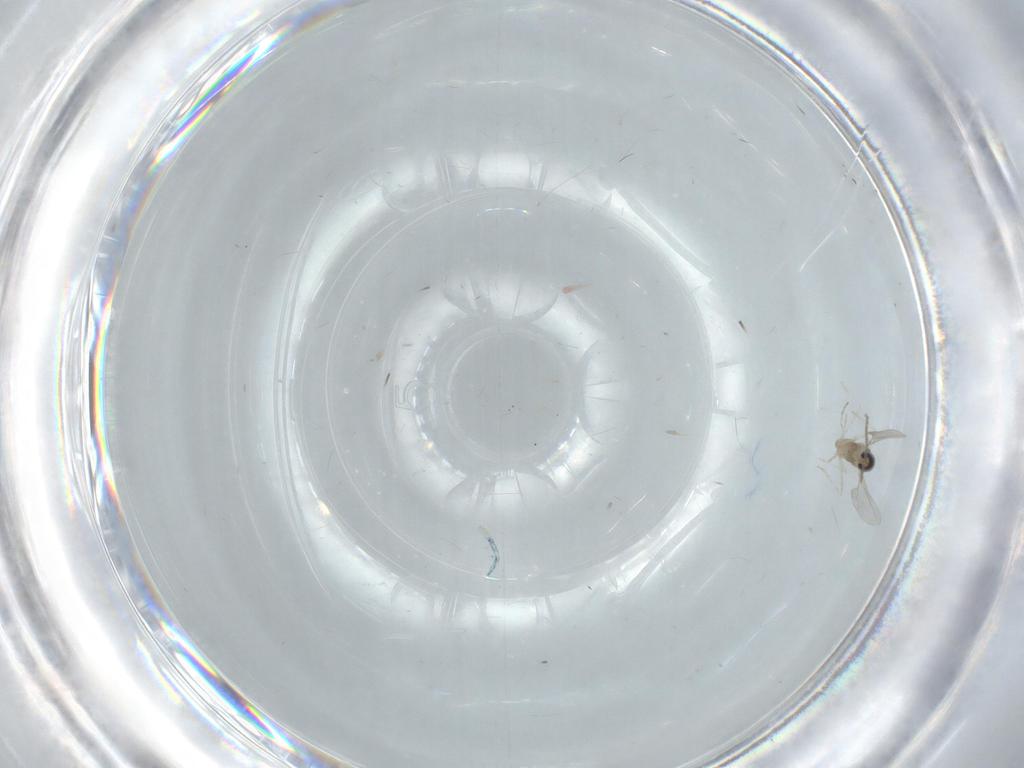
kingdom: Animalia
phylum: Arthropoda
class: Insecta
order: Diptera
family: Cecidomyiidae
